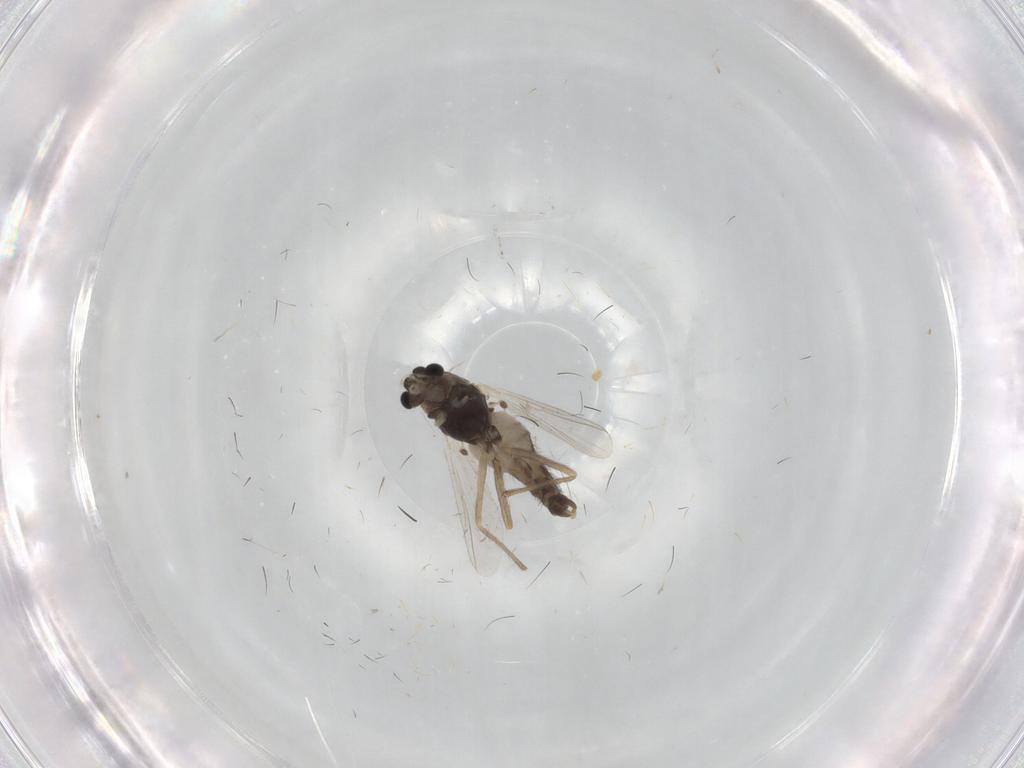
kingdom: Animalia
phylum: Arthropoda
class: Insecta
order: Diptera
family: Chironomidae
